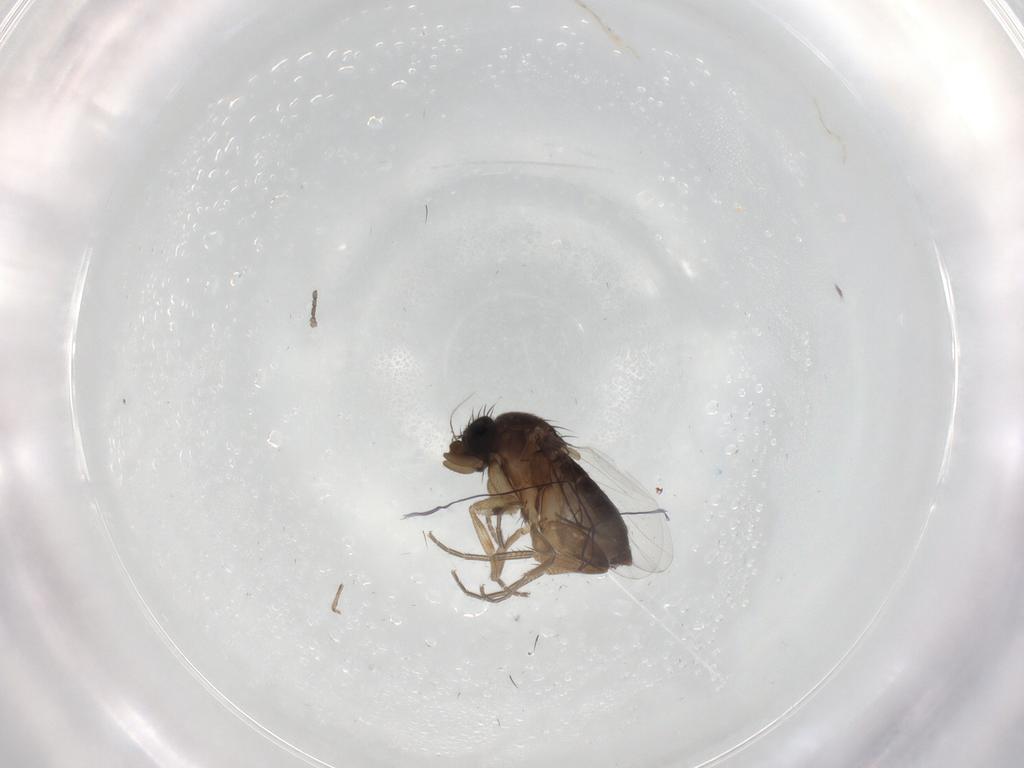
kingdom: Animalia
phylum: Arthropoda
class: Insecta
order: Diptera
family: Phoridae
